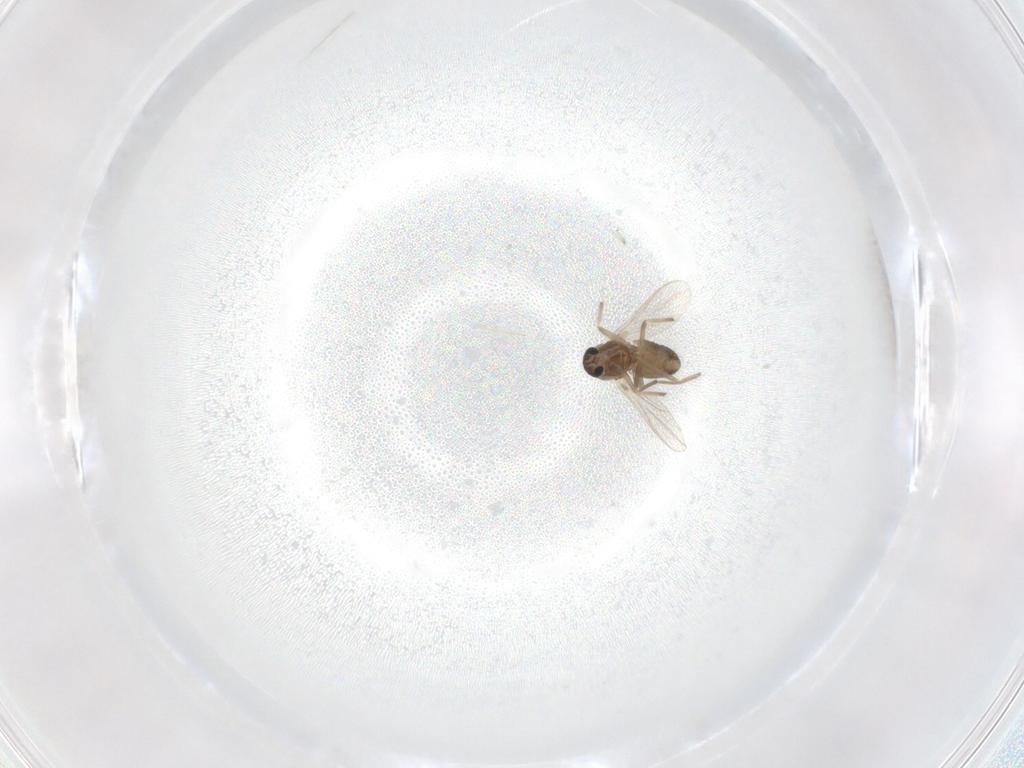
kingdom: Animalia
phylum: Arthropoda
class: Insecta
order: Diptera
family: Chironomidae
